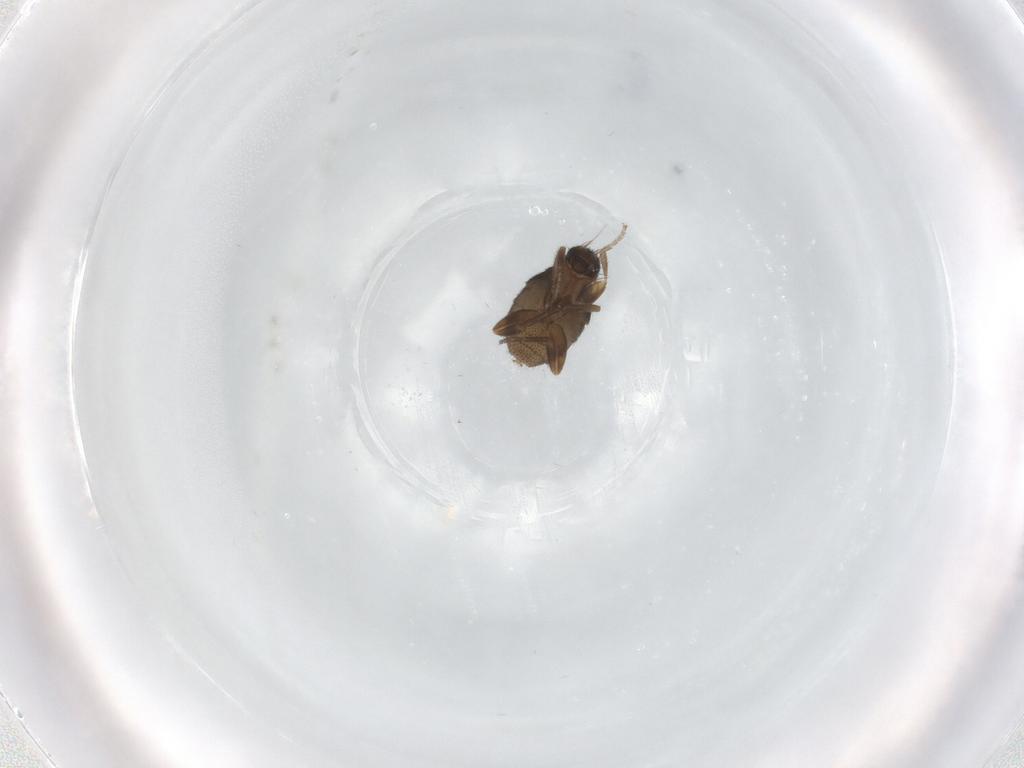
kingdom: Animalia
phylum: Arthropoda
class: Insecta
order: Diptera
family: Phoridae
